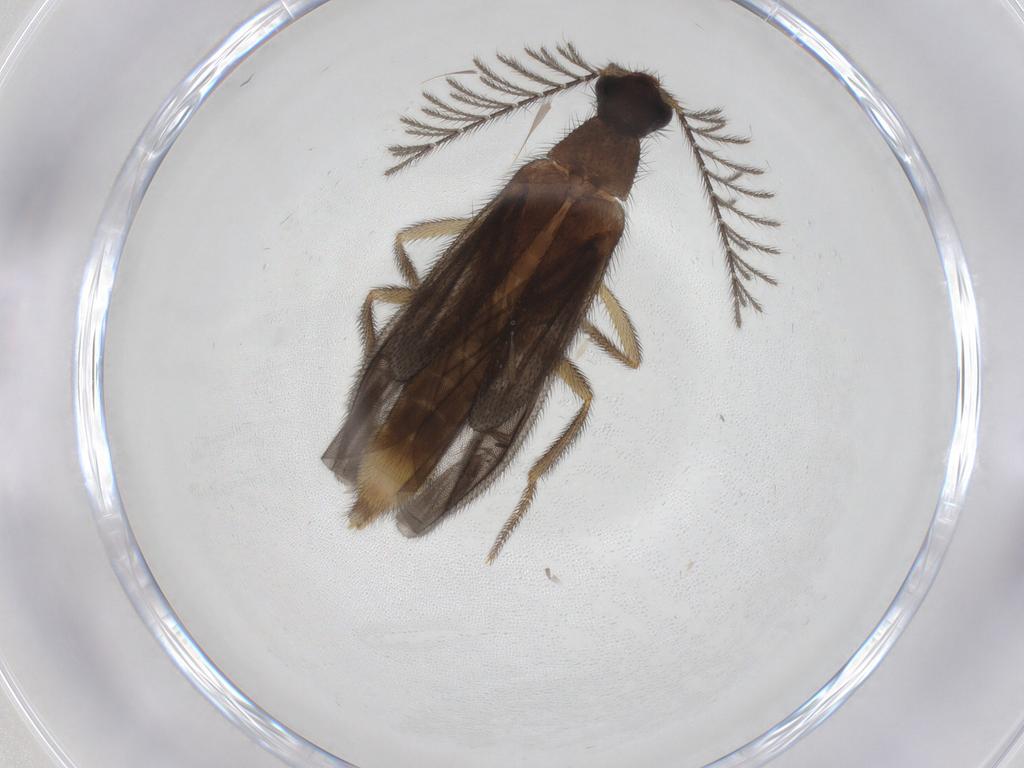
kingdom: Animalia
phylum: Arthropoda
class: Insecta
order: Coleoptera
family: Phengodidae
